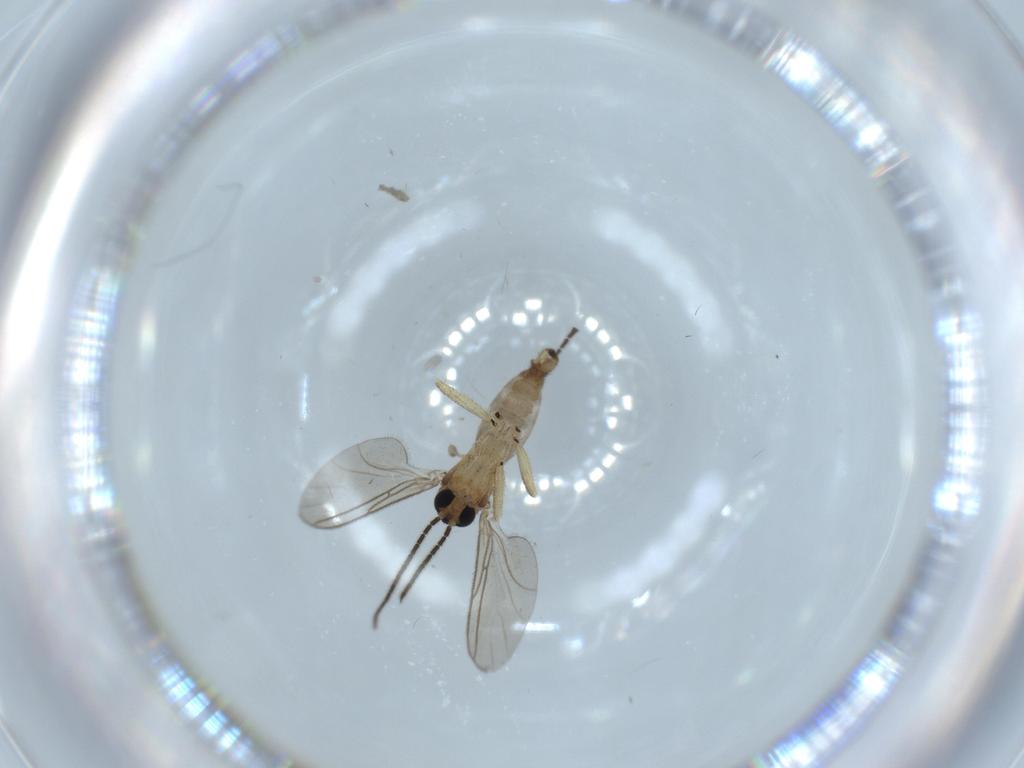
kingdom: Animalia
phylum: Arthropoda
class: Insecta
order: Diptera
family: Sciaridae
